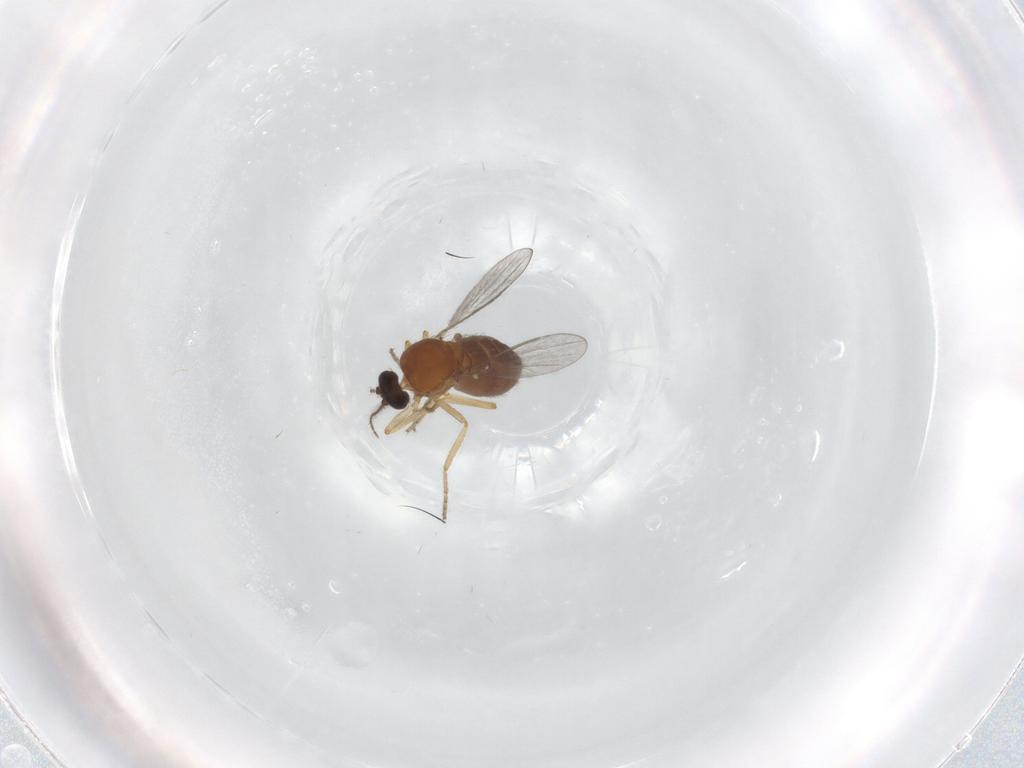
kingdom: Animalia
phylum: Arthropoda
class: Insecta
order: Diptera
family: Ceratopogonidae
